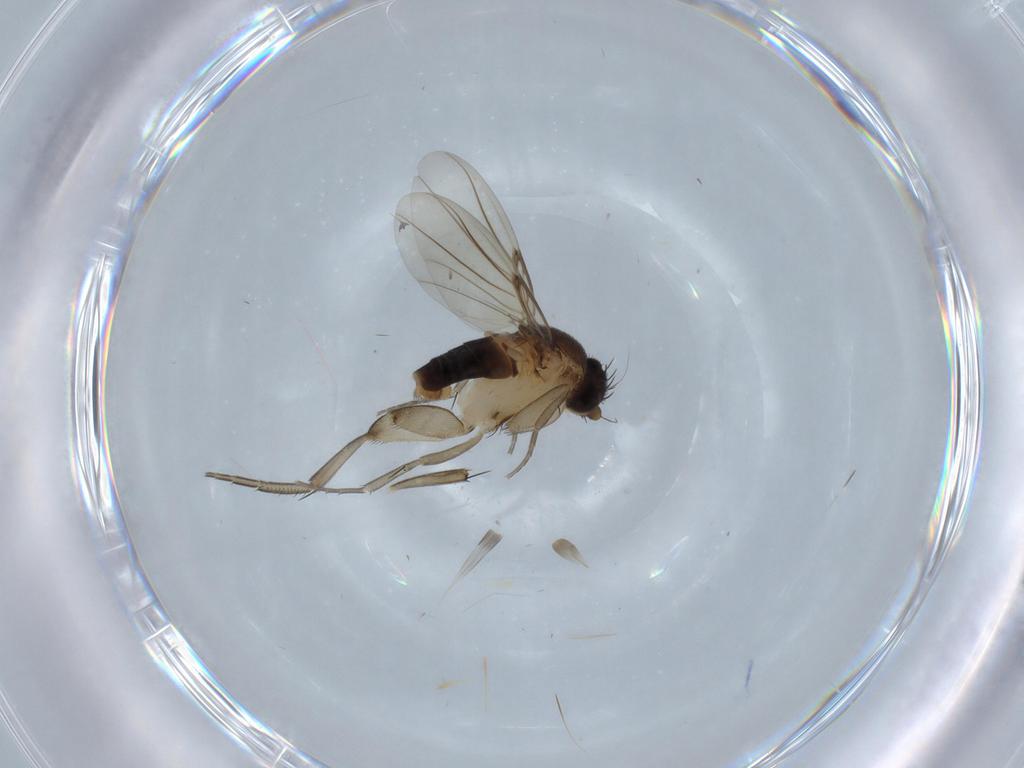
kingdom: Animalia
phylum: Arthropoda
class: Insecta
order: Diptera
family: Phoridae
